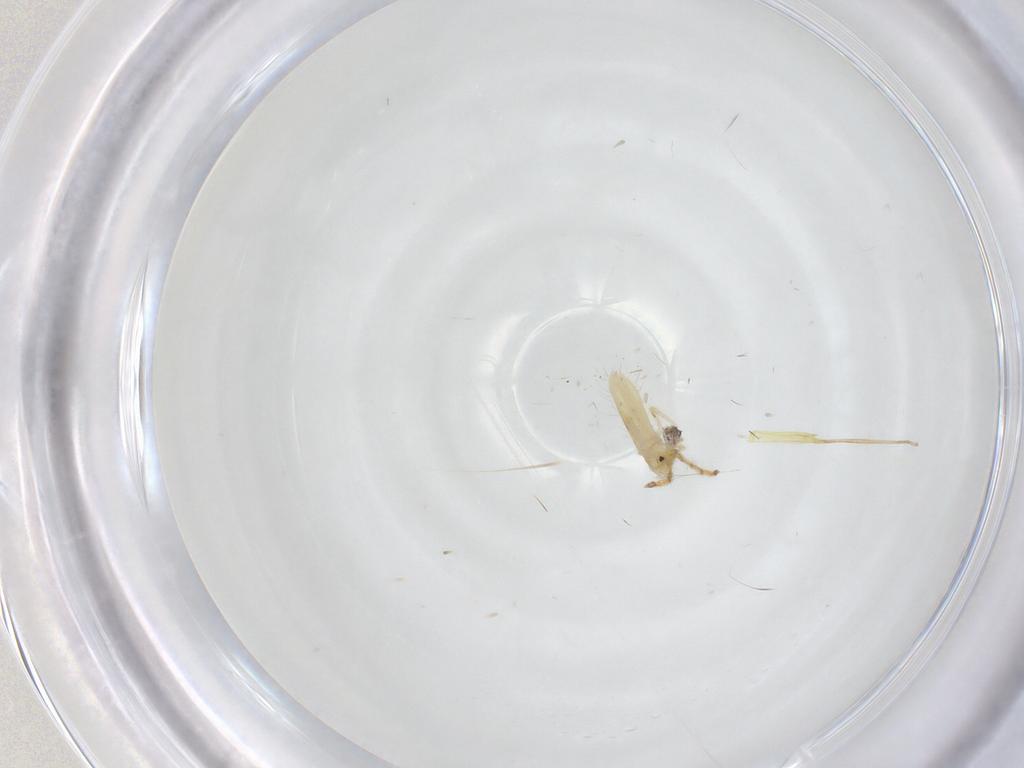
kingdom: Animalia
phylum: Arthropoda
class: Collembola
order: Entomobryomorpha
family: Entomobryidae
